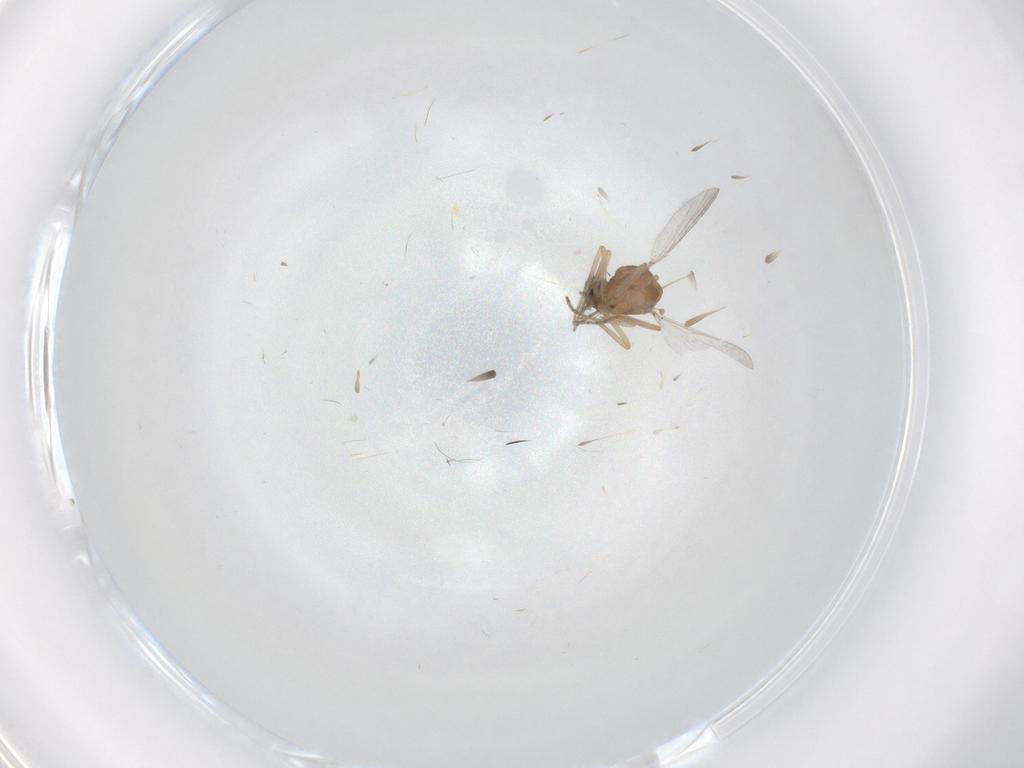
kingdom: Animalia
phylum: Arthropoda
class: Insecta
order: Diptera
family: Ceratopogonidae
